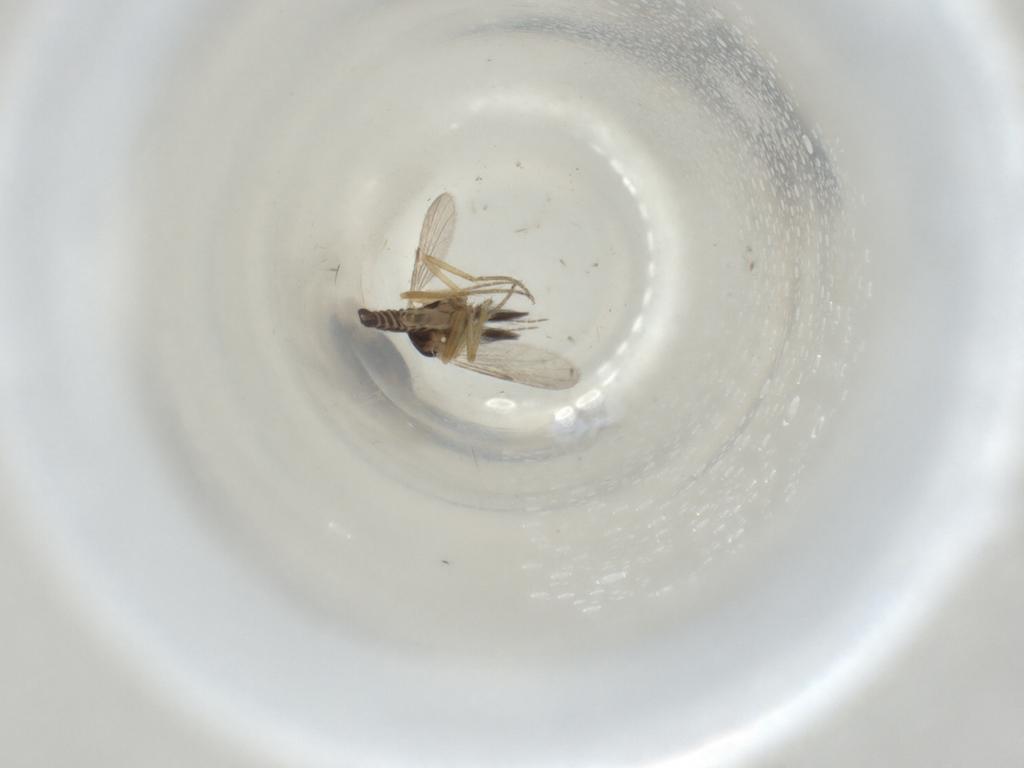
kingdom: Animalia
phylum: Arthropoda
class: Insecta
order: Diptera
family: Ceratopogonidae
